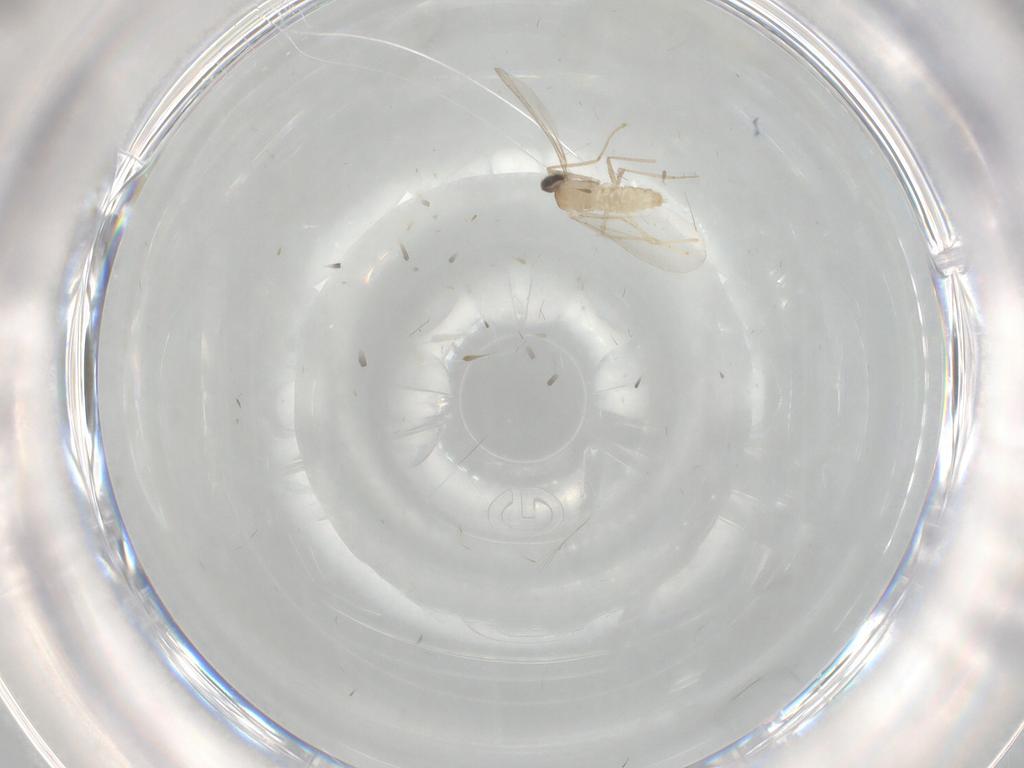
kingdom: Animalia
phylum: Arthropoda
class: Insecta
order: Diptera
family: Cecidomyiidae
